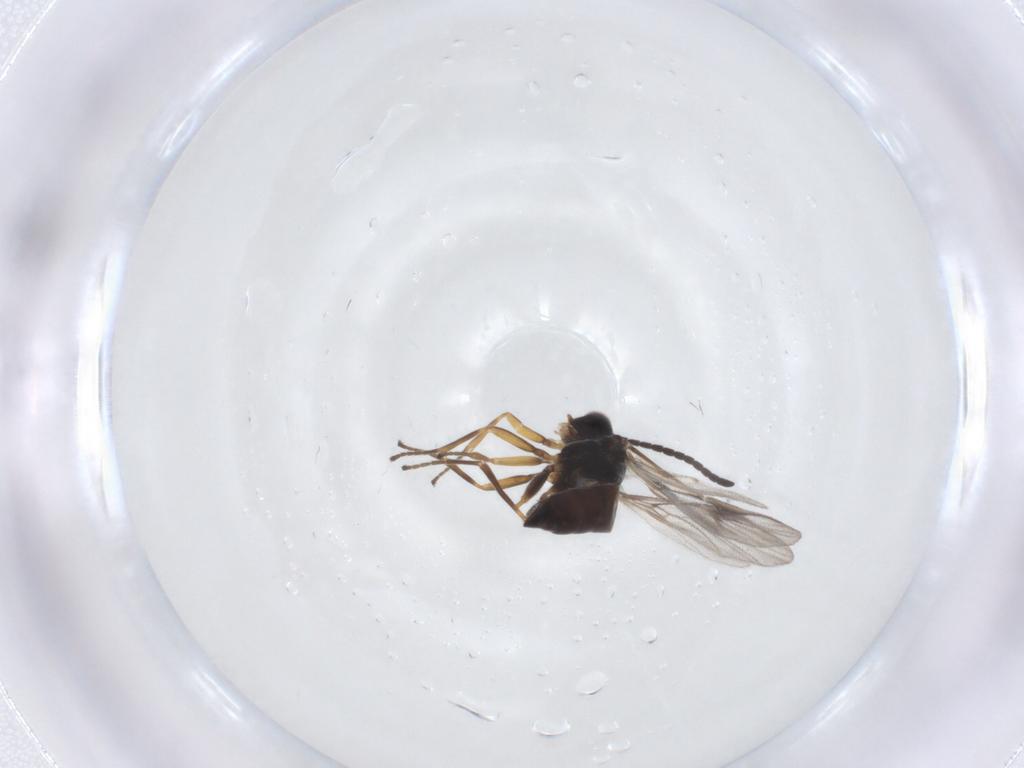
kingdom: Animalia
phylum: Arthropoda
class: Insecta
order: Hymenoptera
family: Braconidae
